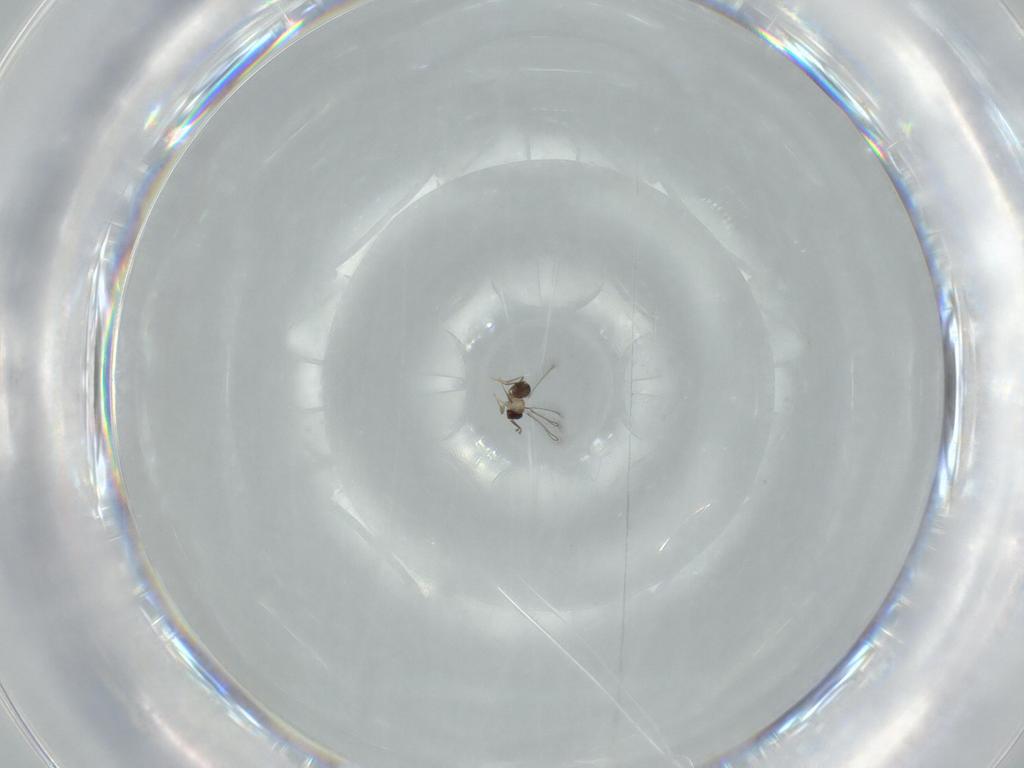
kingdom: Animalia
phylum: Arthropoda
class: Insecta
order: Hymenoptera
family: Mymaridae
